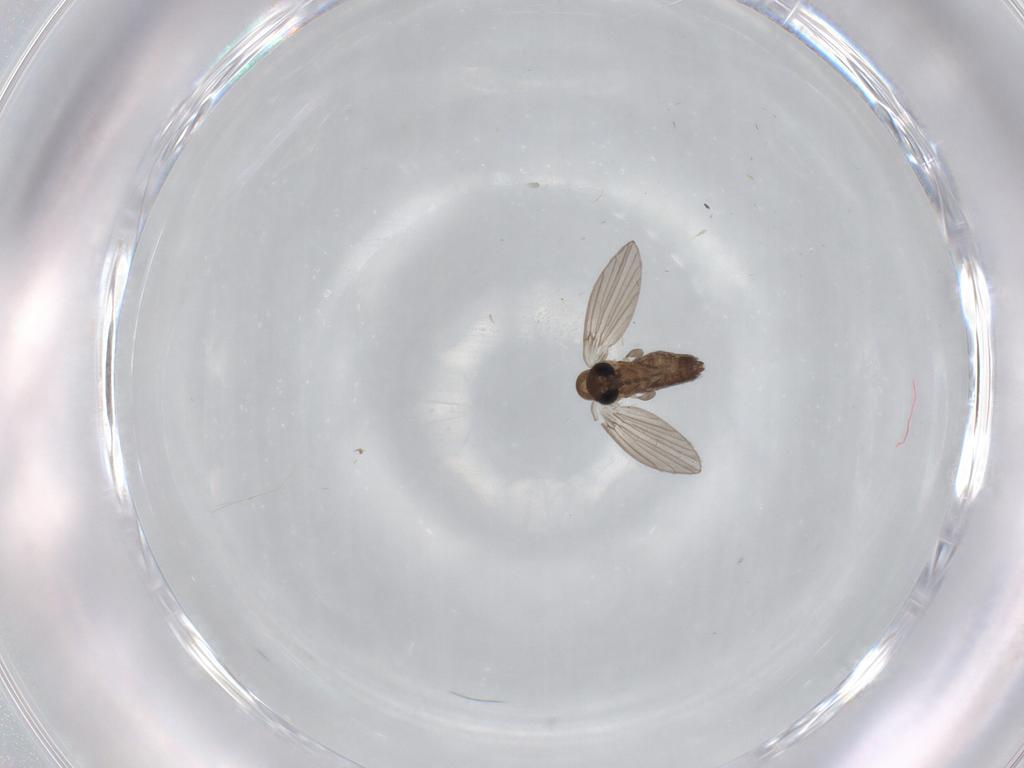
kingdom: Animalia
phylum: Arthropoda
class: Insecta
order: Diptera
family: Psychodidae
